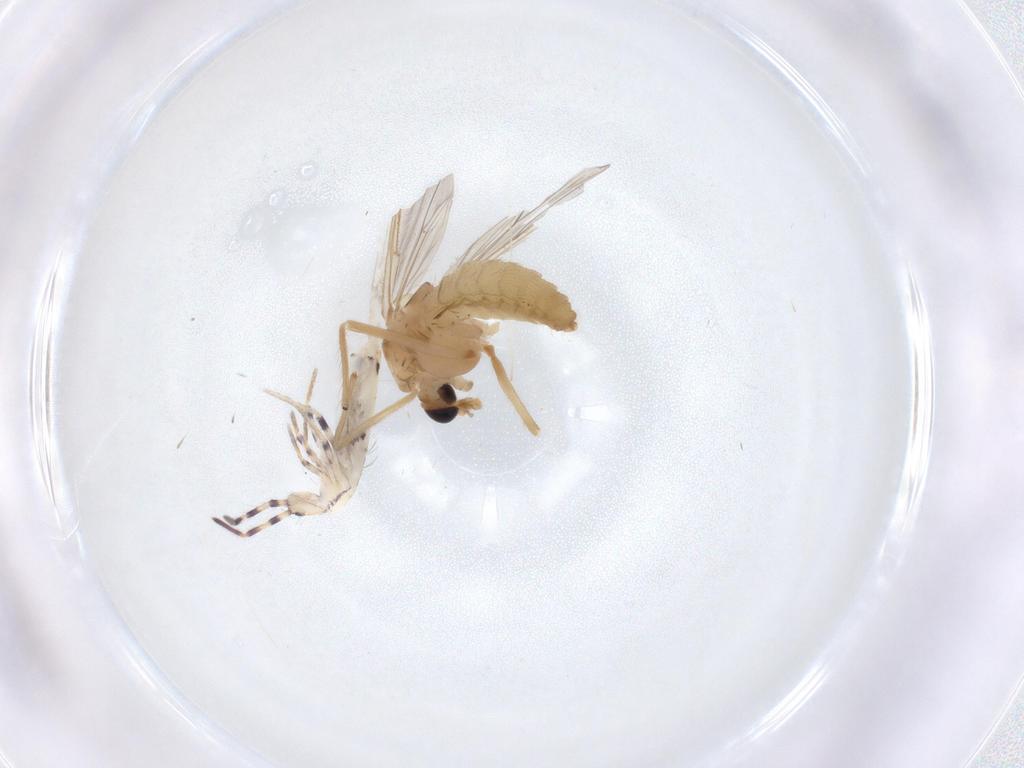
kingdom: Animalia
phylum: Arthropoda
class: Insecta
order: Diptera
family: Chironomidae
